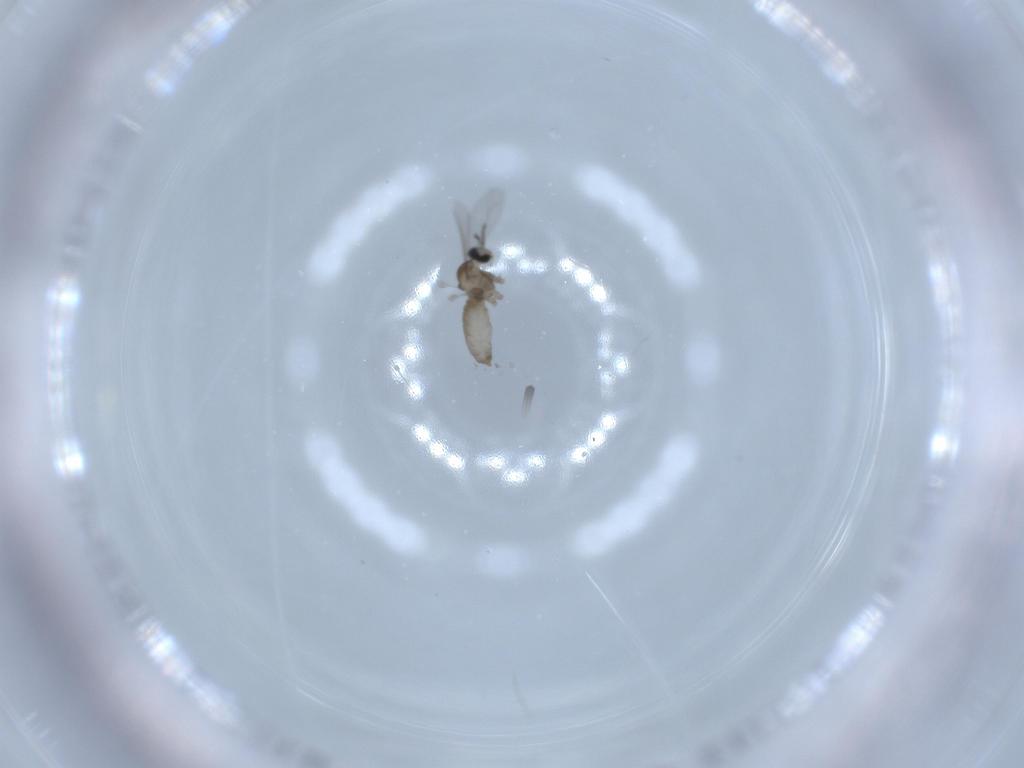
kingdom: Animalia
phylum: Arthropoda
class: Insecta
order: Diptera
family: Cecidomyiidae
